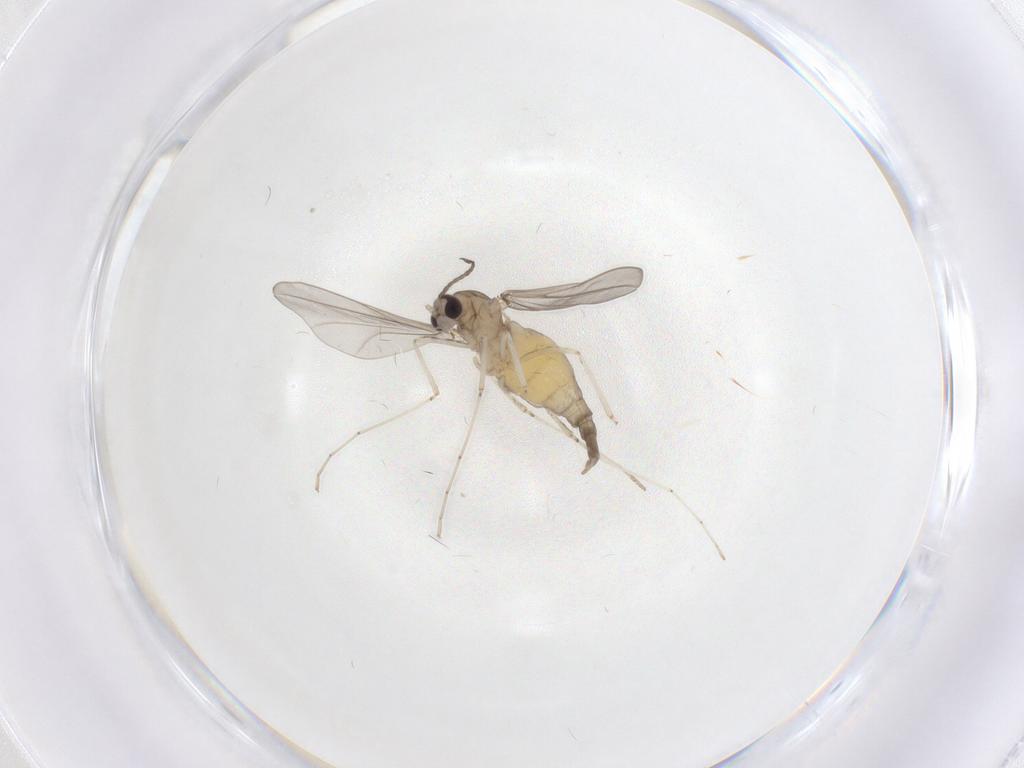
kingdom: Animalia
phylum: Arthropoda
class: Insecta
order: Diptera
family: Cecidomyiidae
